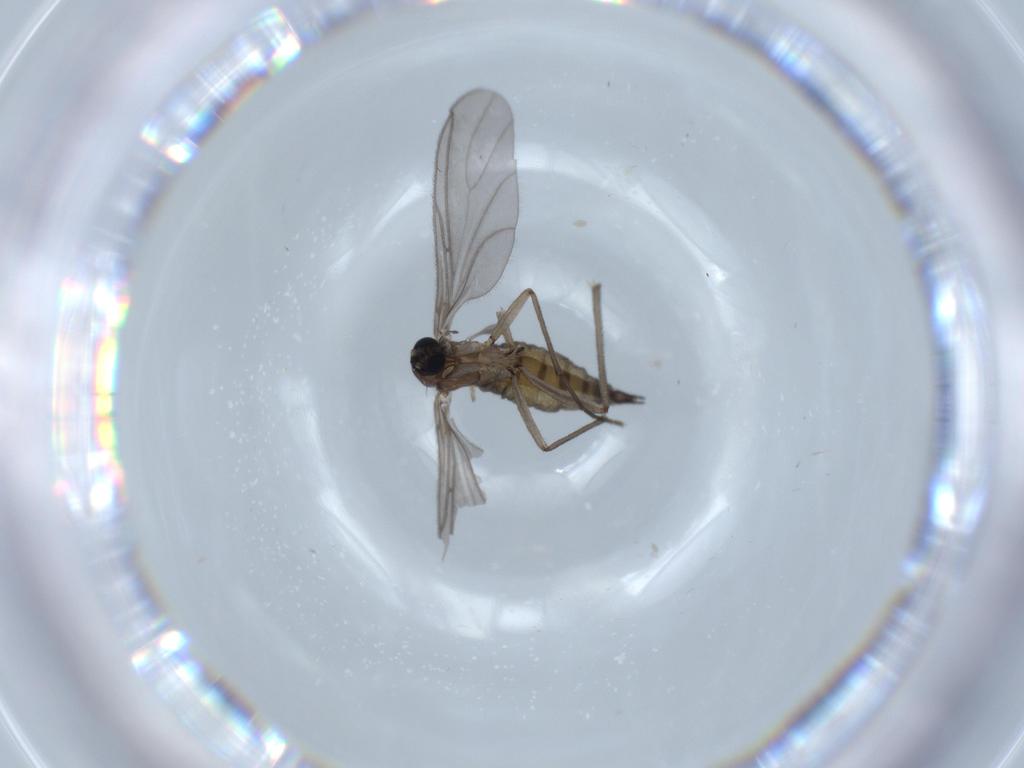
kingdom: Animalia
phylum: Arthropoda
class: Insecta
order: Diptera
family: Sciaridae
